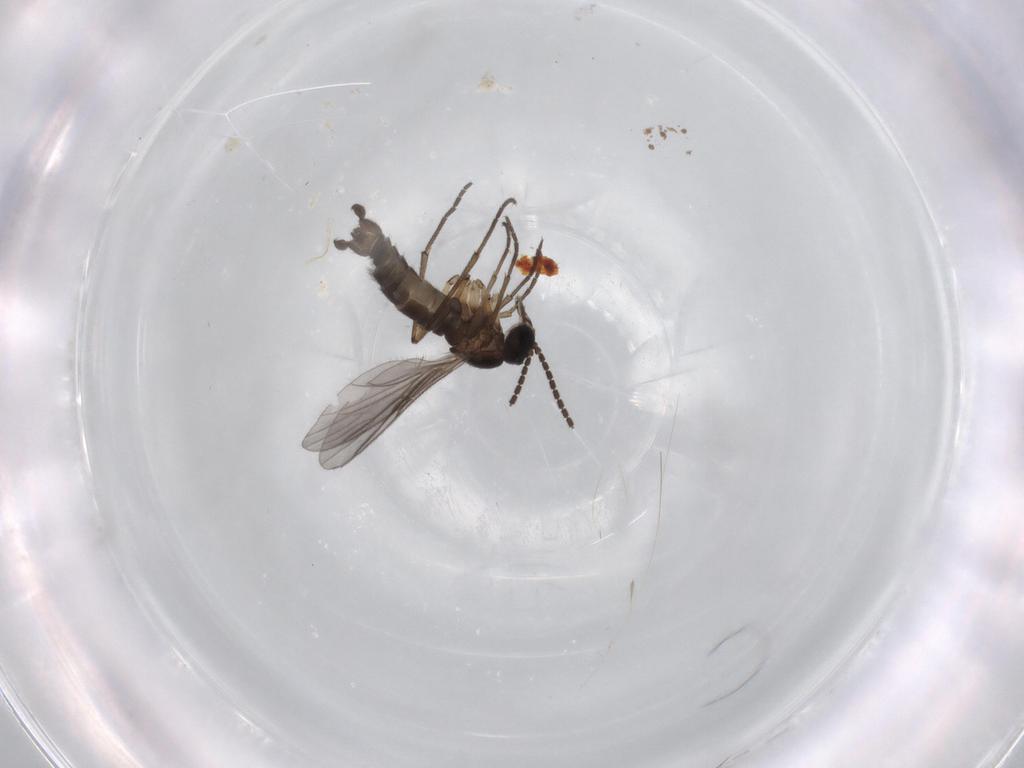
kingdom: Animalia
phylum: Arthropoda
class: Insecta
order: Diptera
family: Sciaridae
